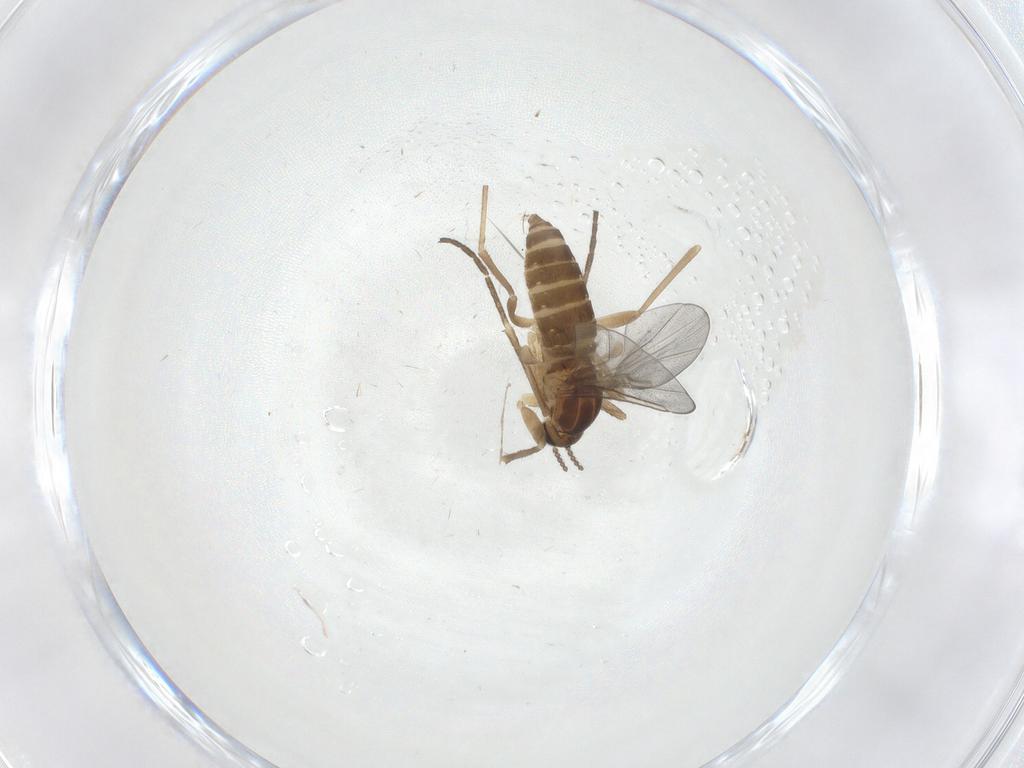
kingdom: Animalia
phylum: Arthropoda
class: Insecta
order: Diptera
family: Cecidomyiidae
